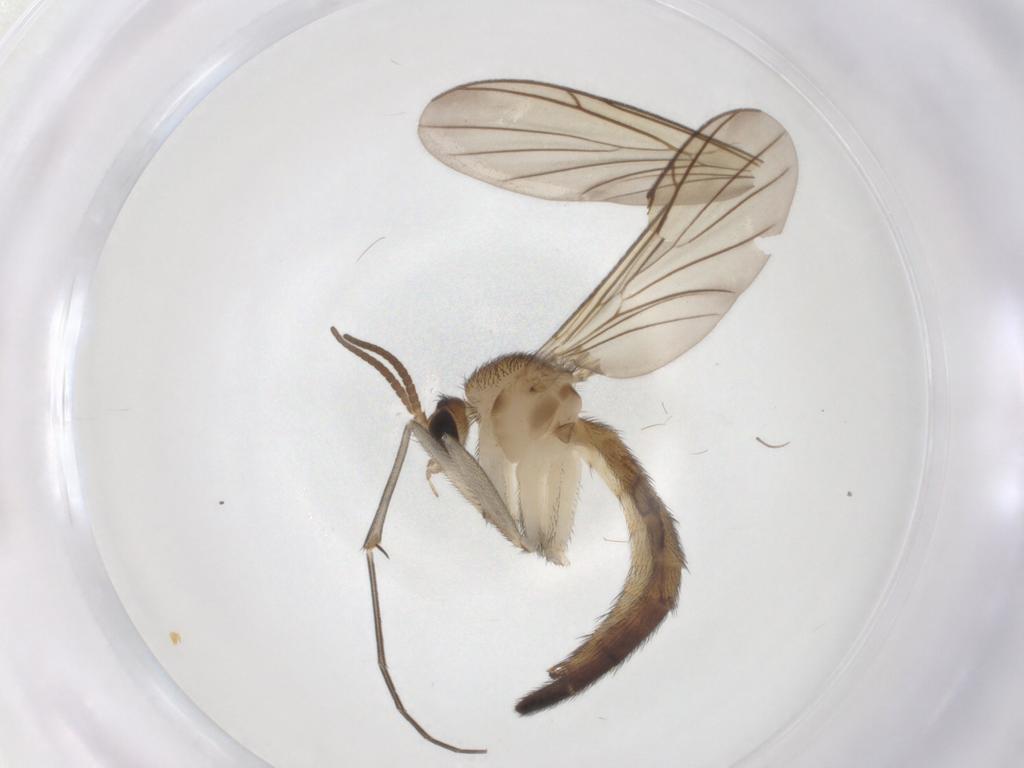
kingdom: Animalia
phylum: Arthropoda
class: Insecta
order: Diptera
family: Keroplatidae
